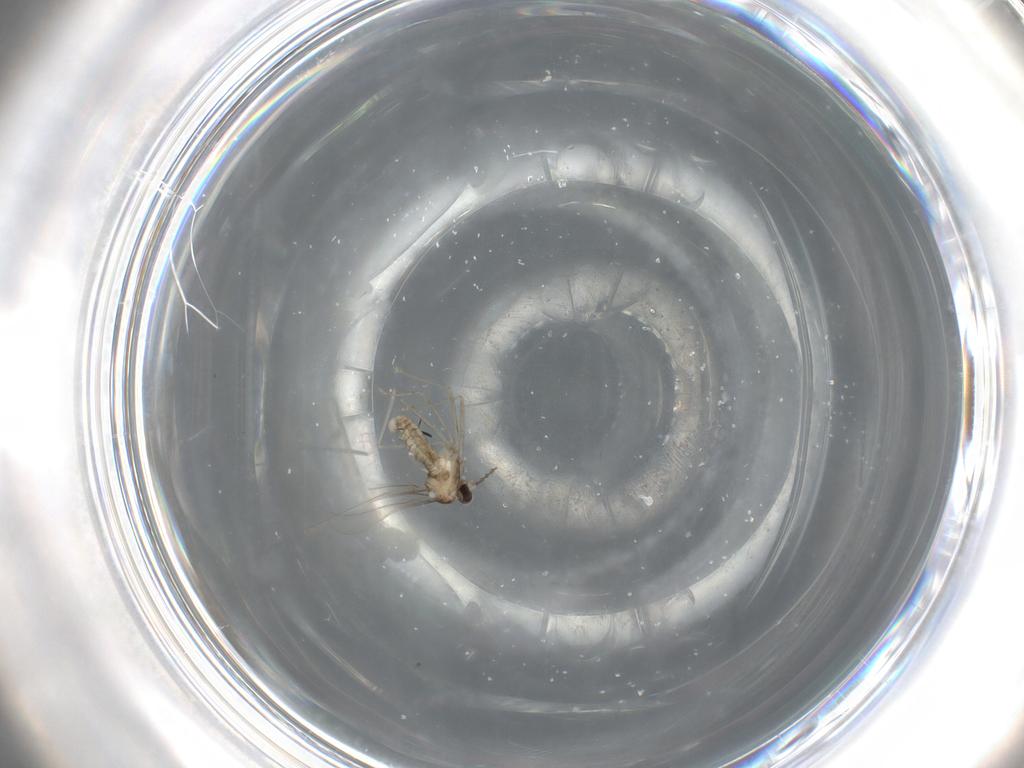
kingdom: Animalia
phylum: Arthropoda
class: Insecta
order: Diptera
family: Cecidomyiidae
